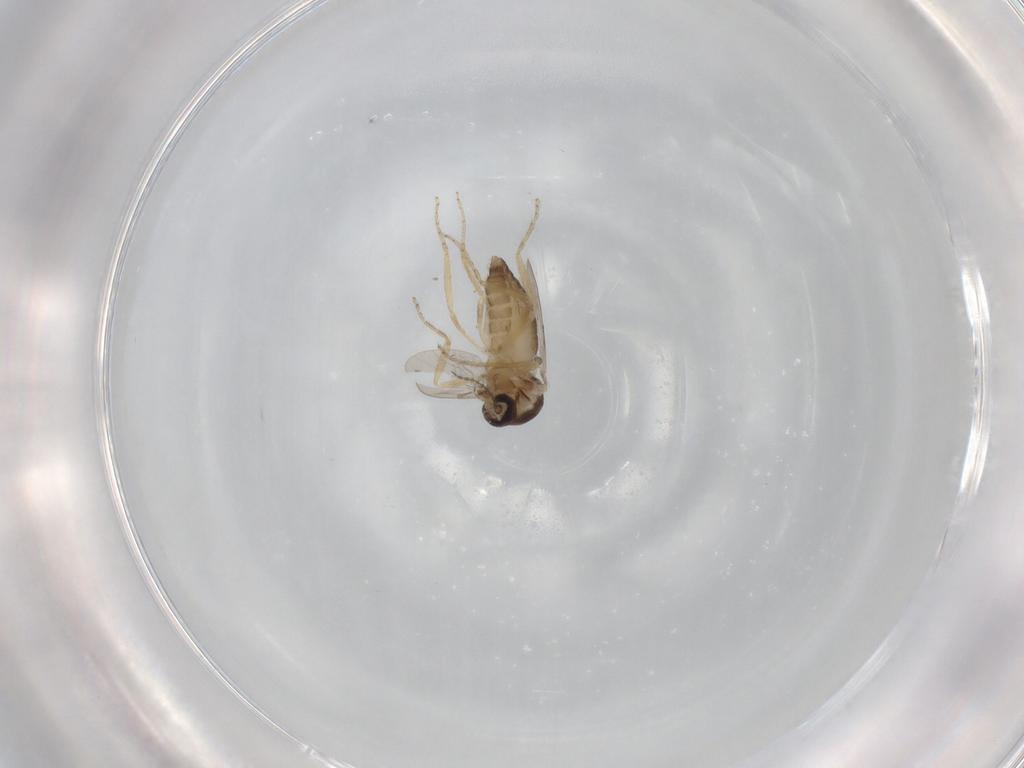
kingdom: Animalia
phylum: Arthropoda
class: Insecta
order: Diptera
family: Ceratopogonidae
